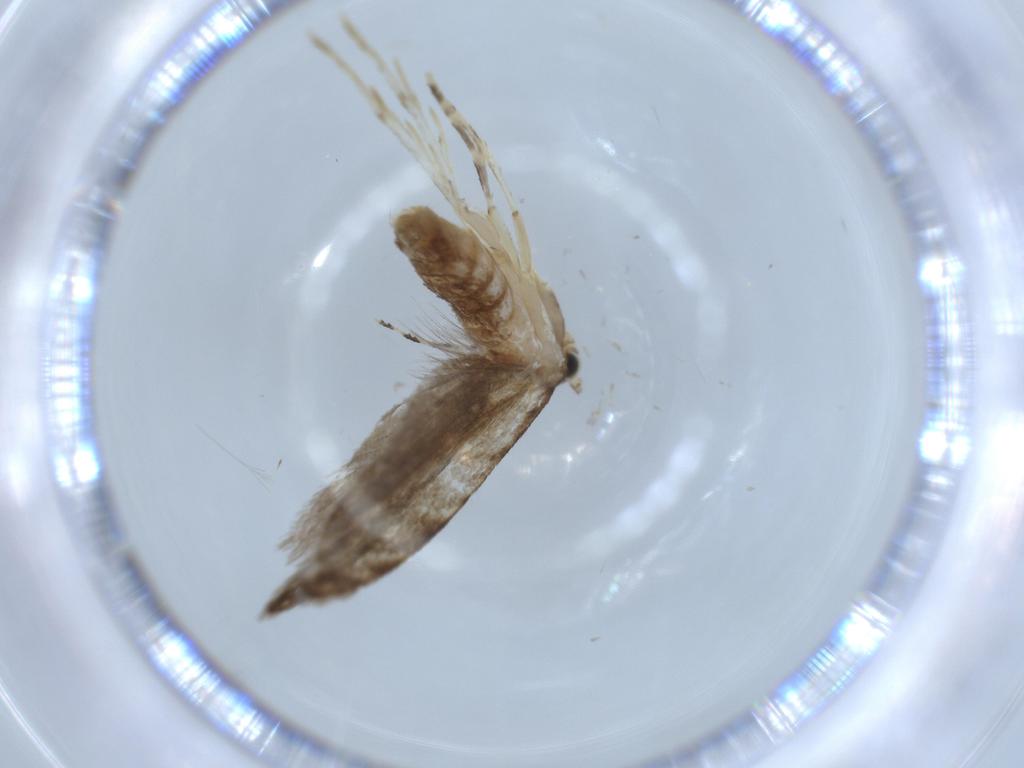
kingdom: Animalia
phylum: Arthropoda
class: Insecta
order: Lepidoptera
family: Tineidae
